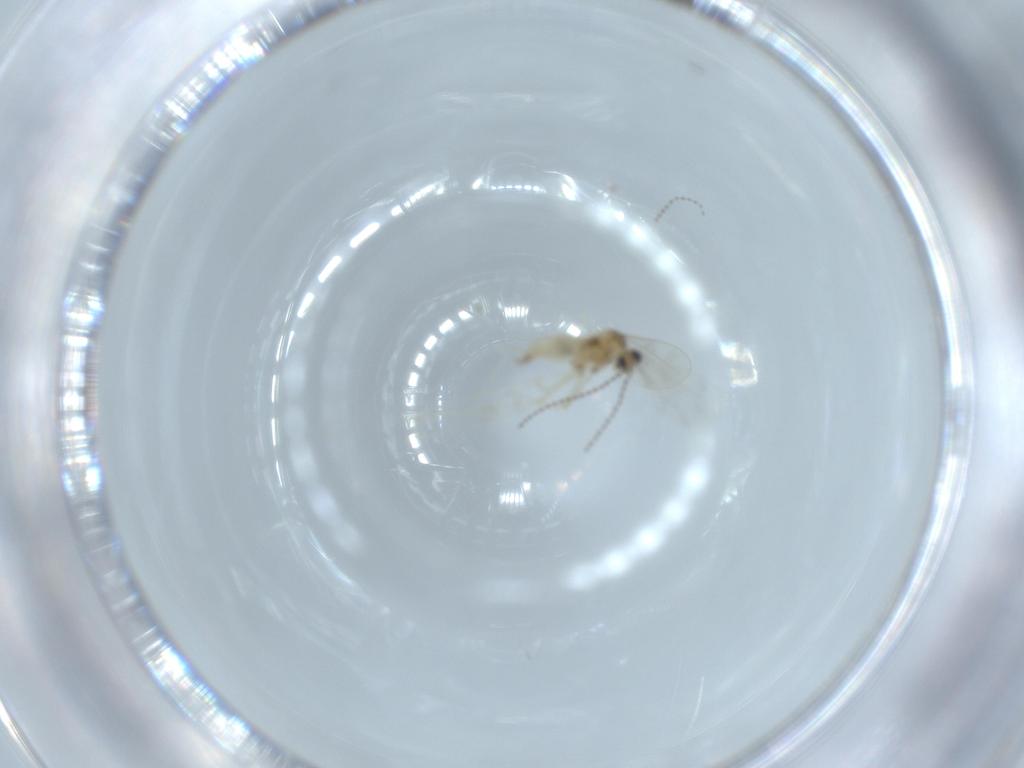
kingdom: Animalia
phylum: Arthropoda
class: Insecta
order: Diptera
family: Cecidomyiidae
